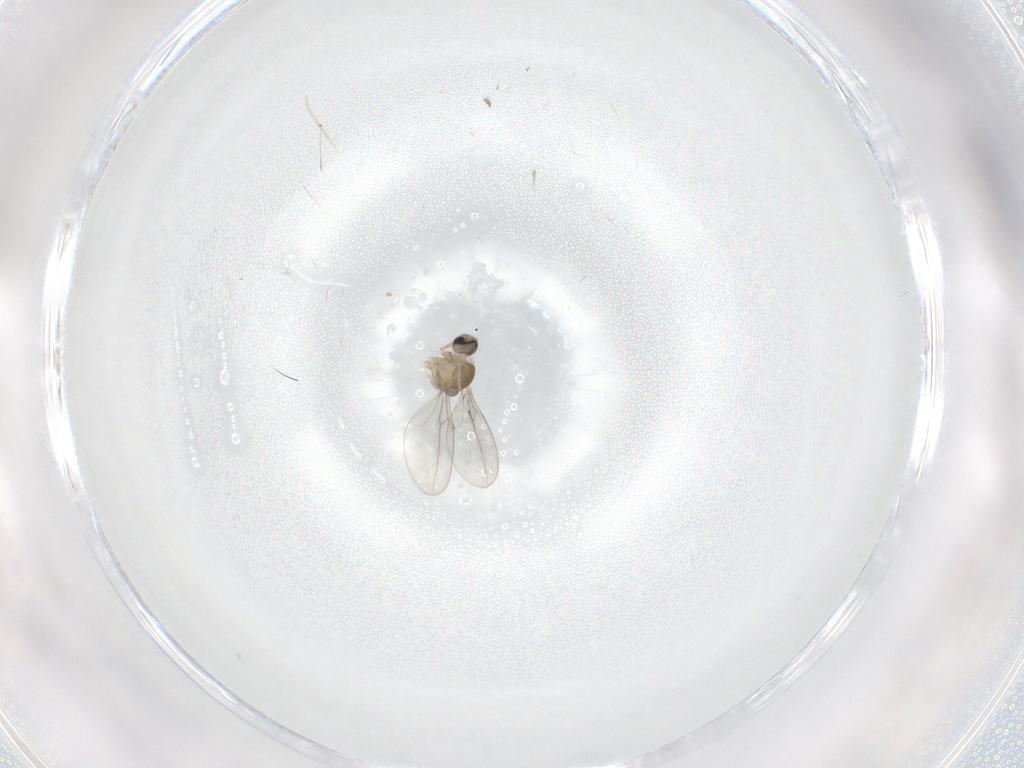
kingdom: Animalia
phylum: Arthropoda
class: Insecta
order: Diptera
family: Cecidomyiidae
